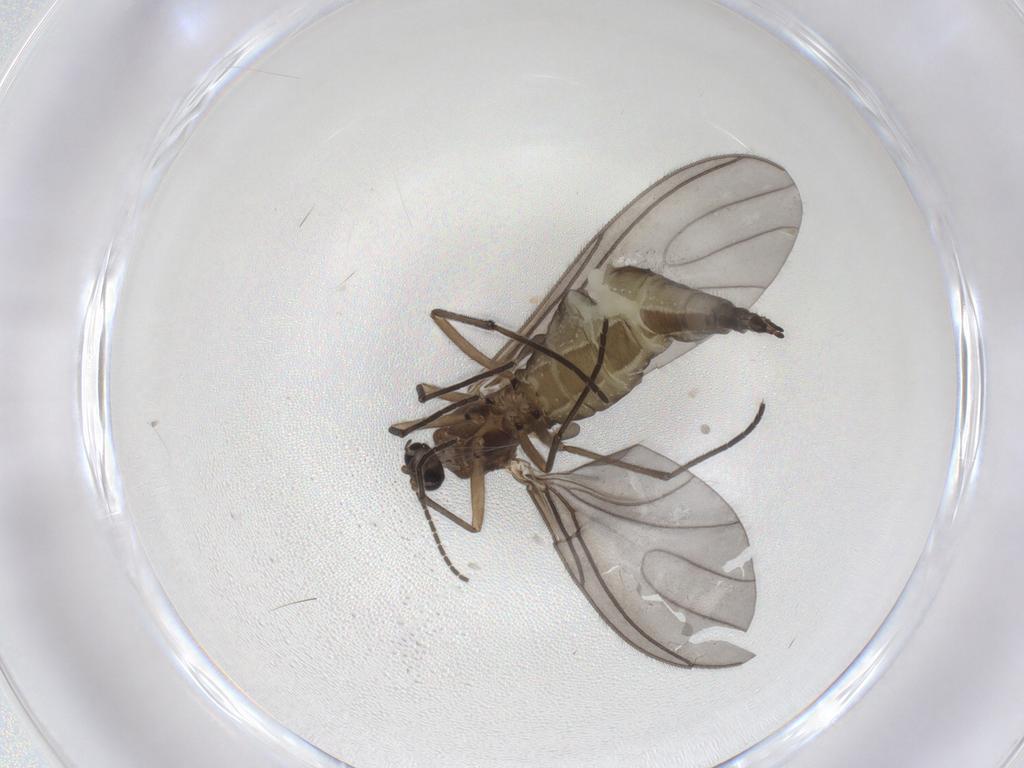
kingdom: Animalia
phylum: Arthropoda
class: Insecta
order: Diptera
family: Sciaridae
